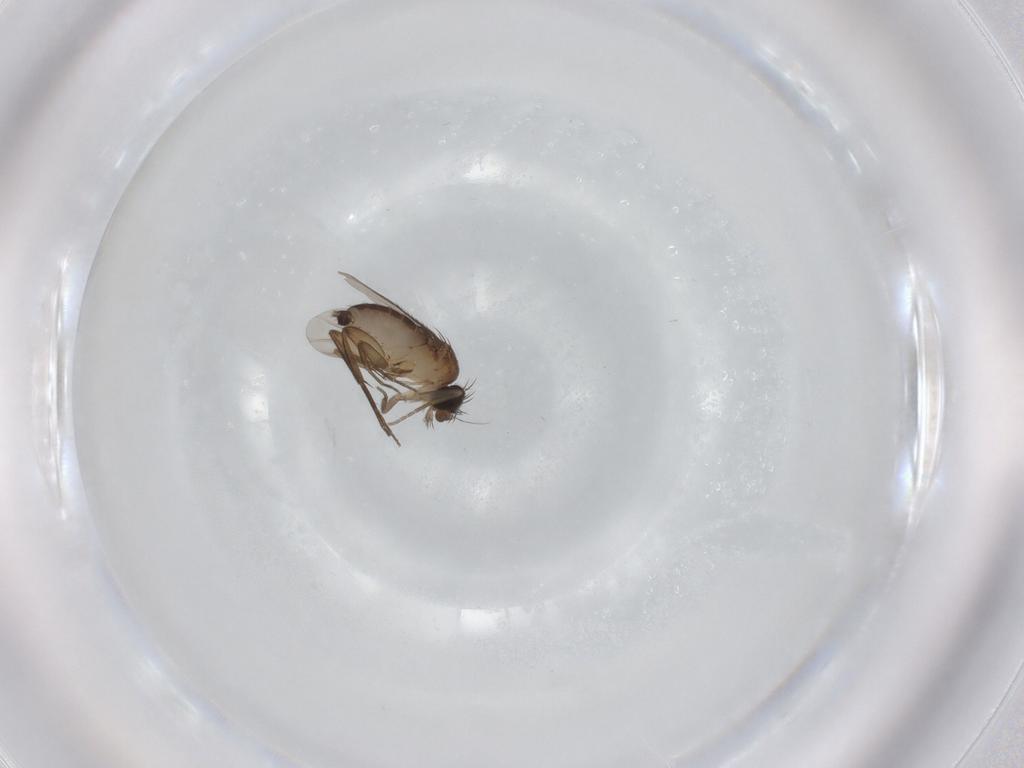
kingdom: Animalia
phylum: Arthropoda
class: Insecta
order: Diptera
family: Phoridae
